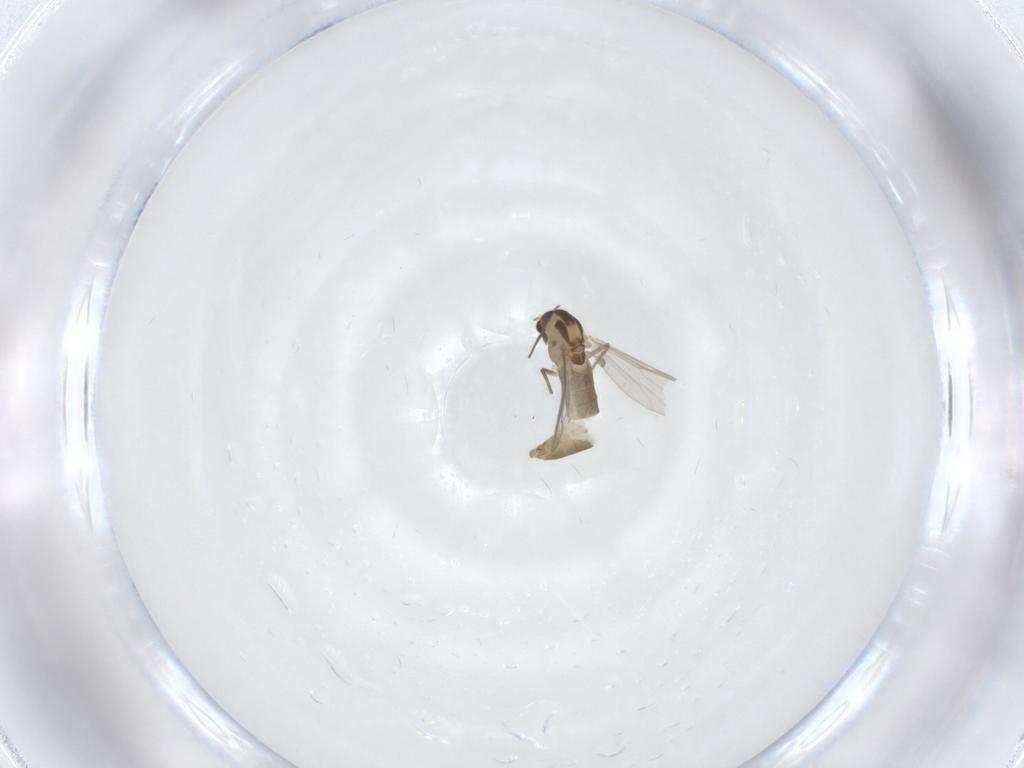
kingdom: Animalia
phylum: Arthropoda
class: Insecta
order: Diptera
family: Chironomidae
